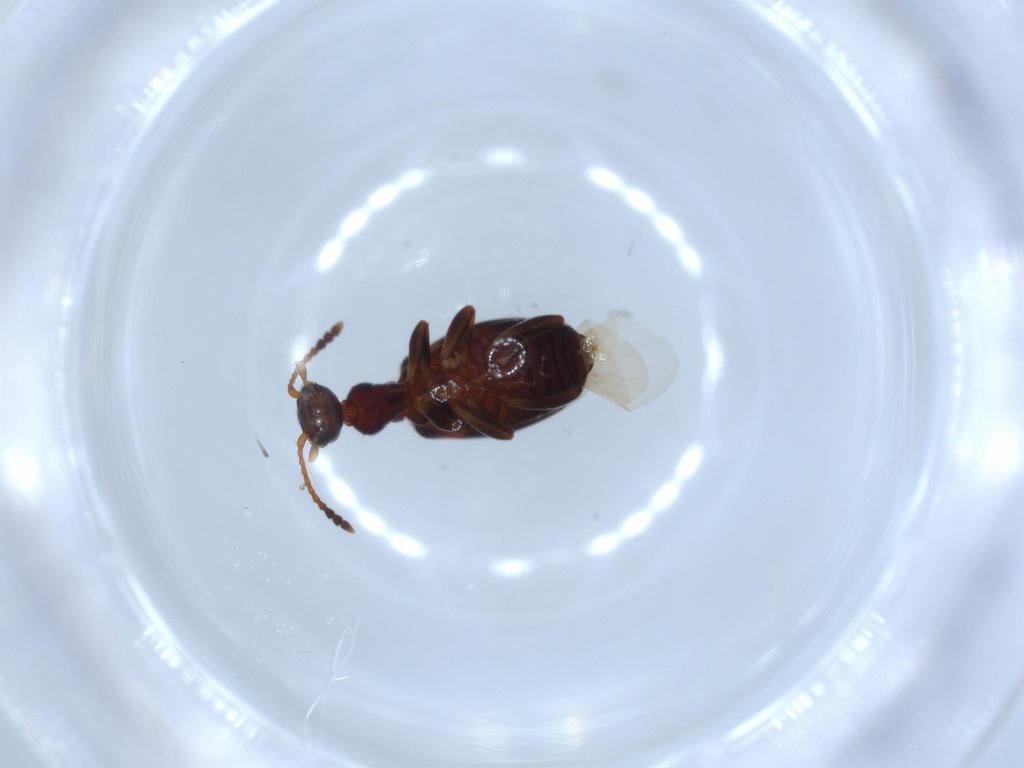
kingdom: Animalia
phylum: Arthropoda
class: Insecta
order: Coleoptera
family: Anthicidae
